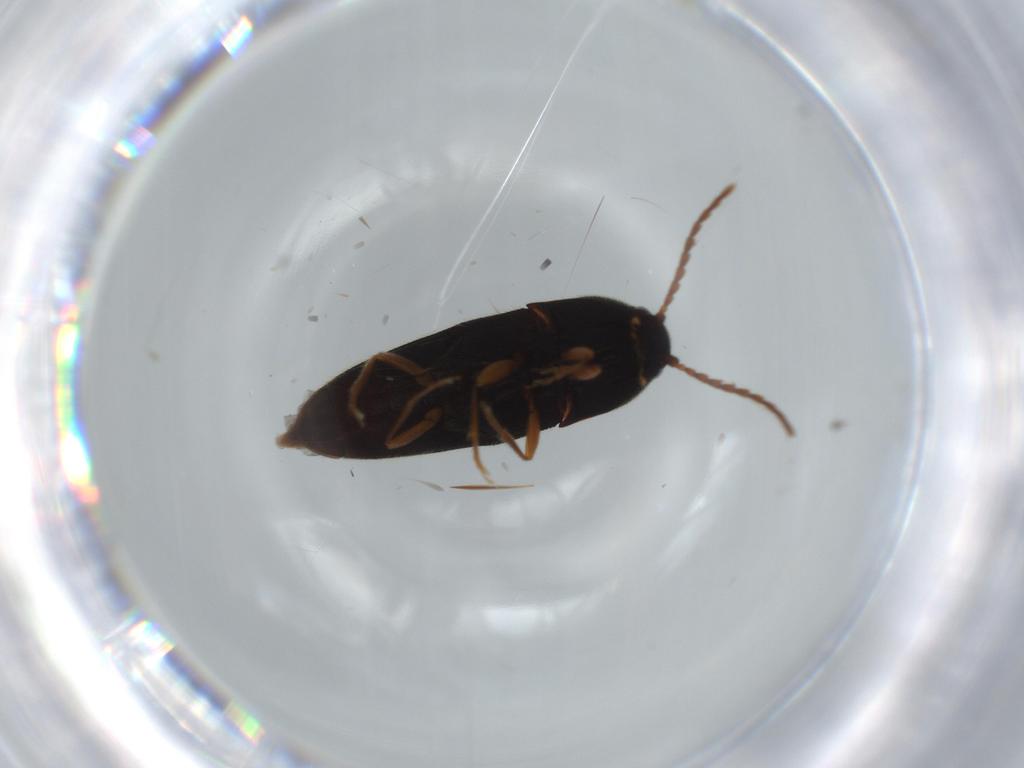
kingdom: Animalia
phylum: Arthropoda
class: Insecta
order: Coleoptera
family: Elateridae
